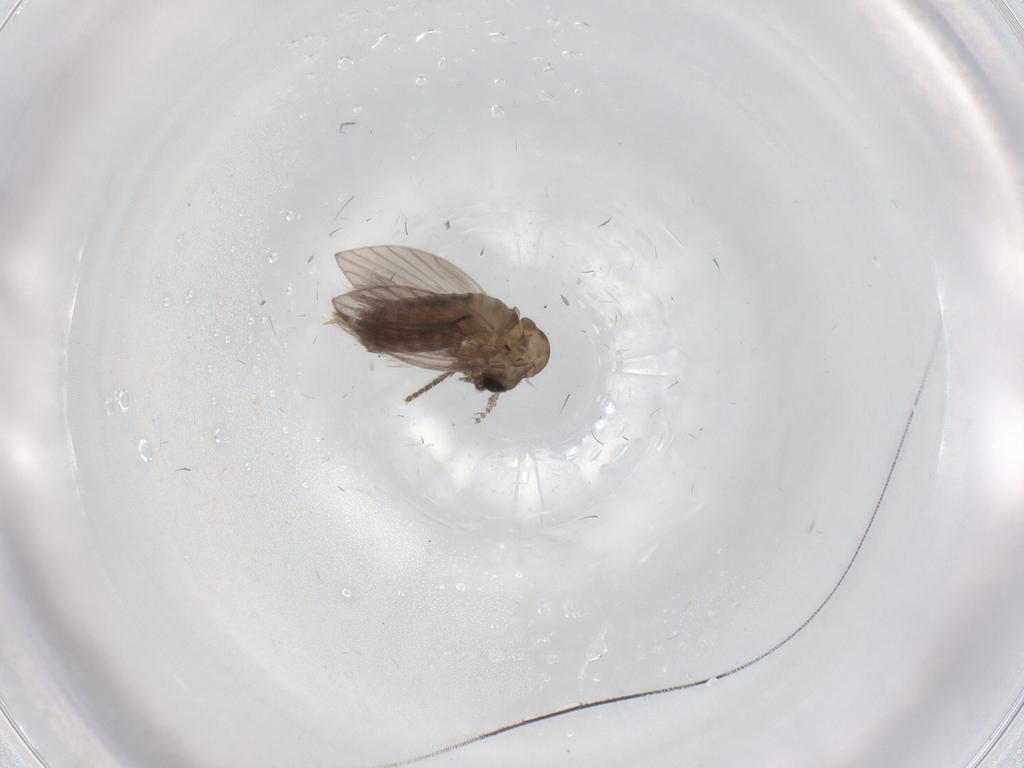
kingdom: Animalia
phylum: Arthropoda
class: Insecta
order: Diptera
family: Psychodidae
